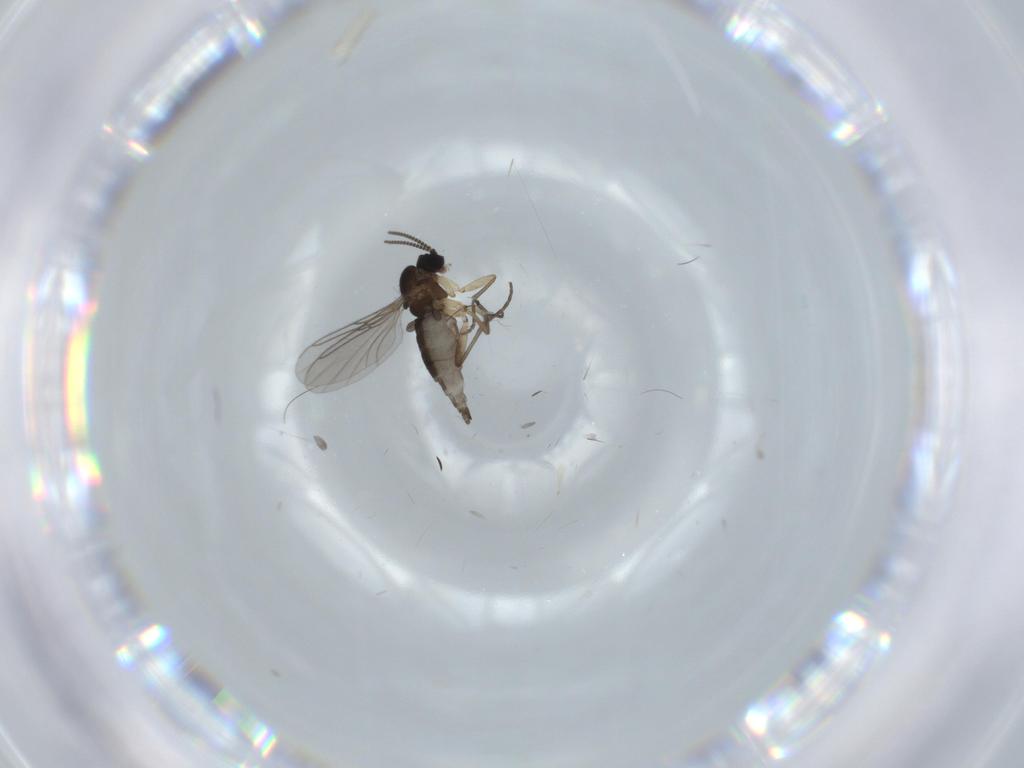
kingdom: Animalia
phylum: Arthropoda
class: Insecta
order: Diptera
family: Sciaridae
